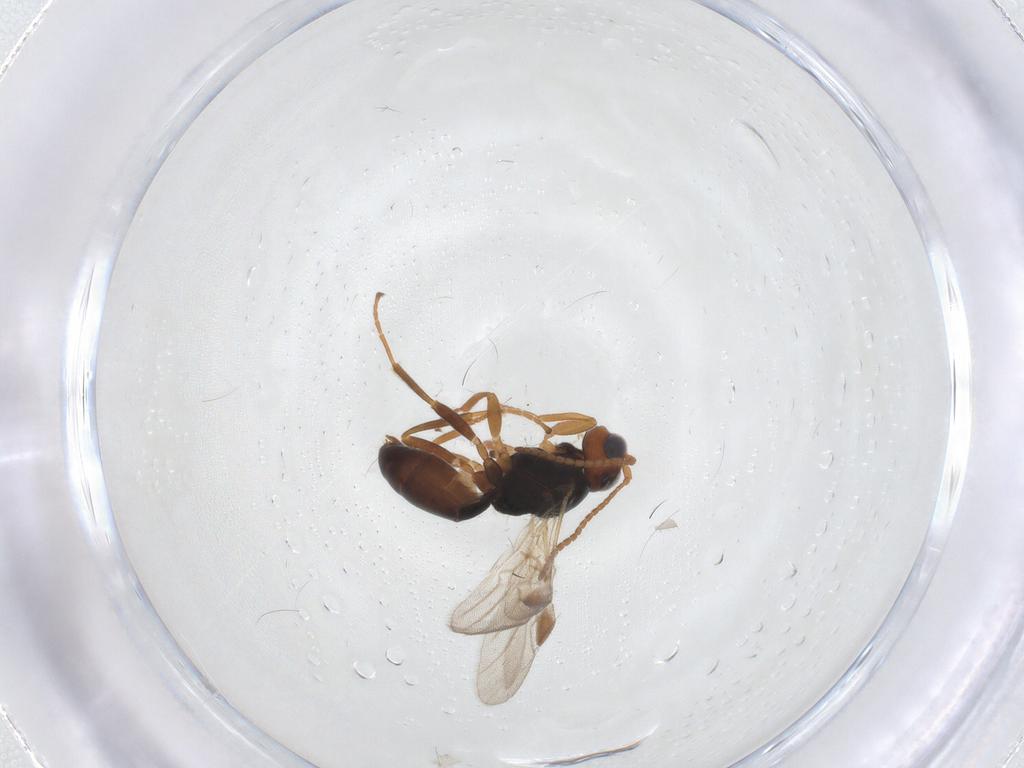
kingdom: Animalia
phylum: Arthropoda
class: Insecta
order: Hymenoptera
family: Braconidae
